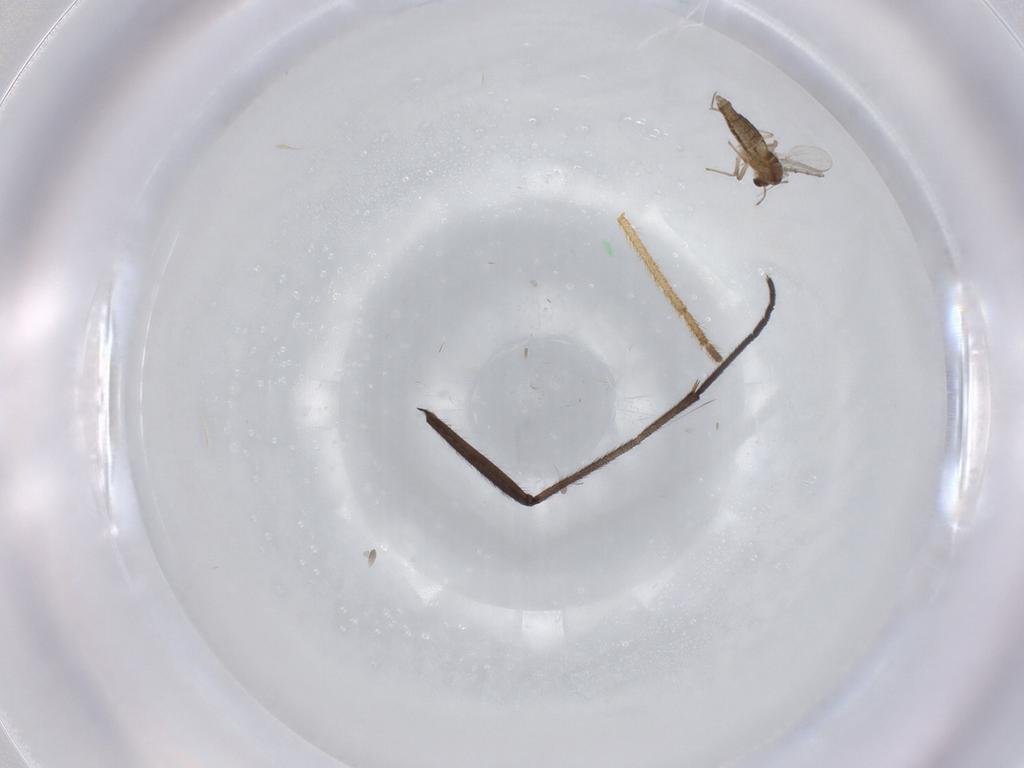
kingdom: Animalia
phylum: Arthropoda
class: Insecta
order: Diptera
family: Chironomidae
